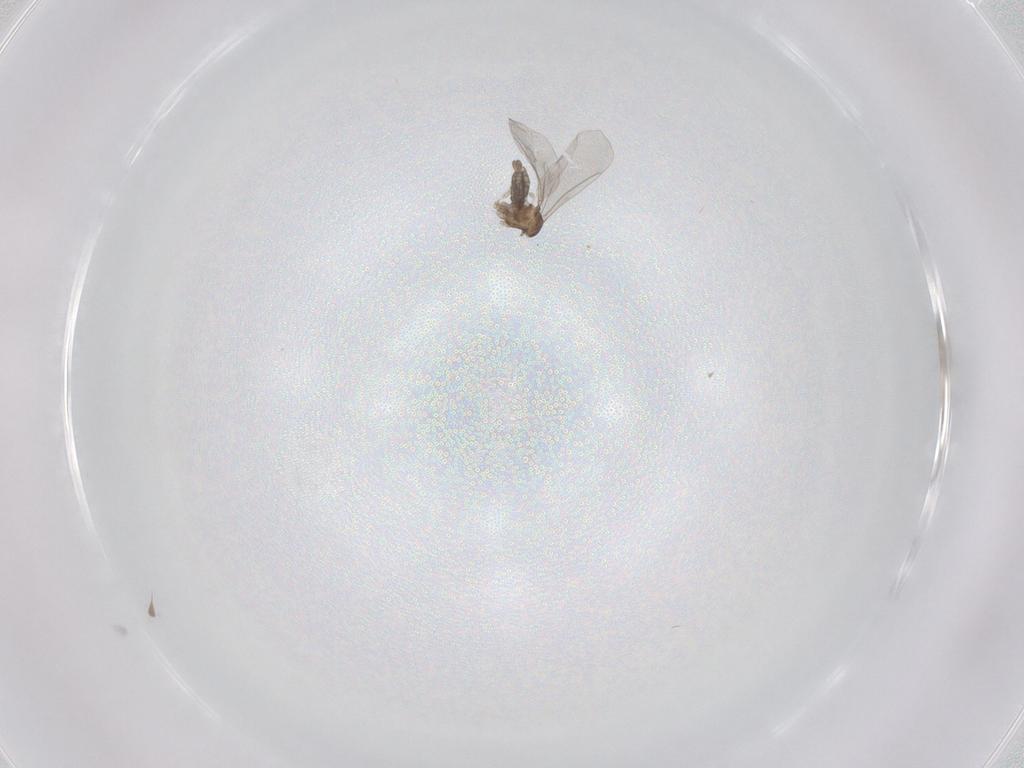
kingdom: Animalia
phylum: Arthropoda
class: Insecta
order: Diptera
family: Cecidomyiidae
